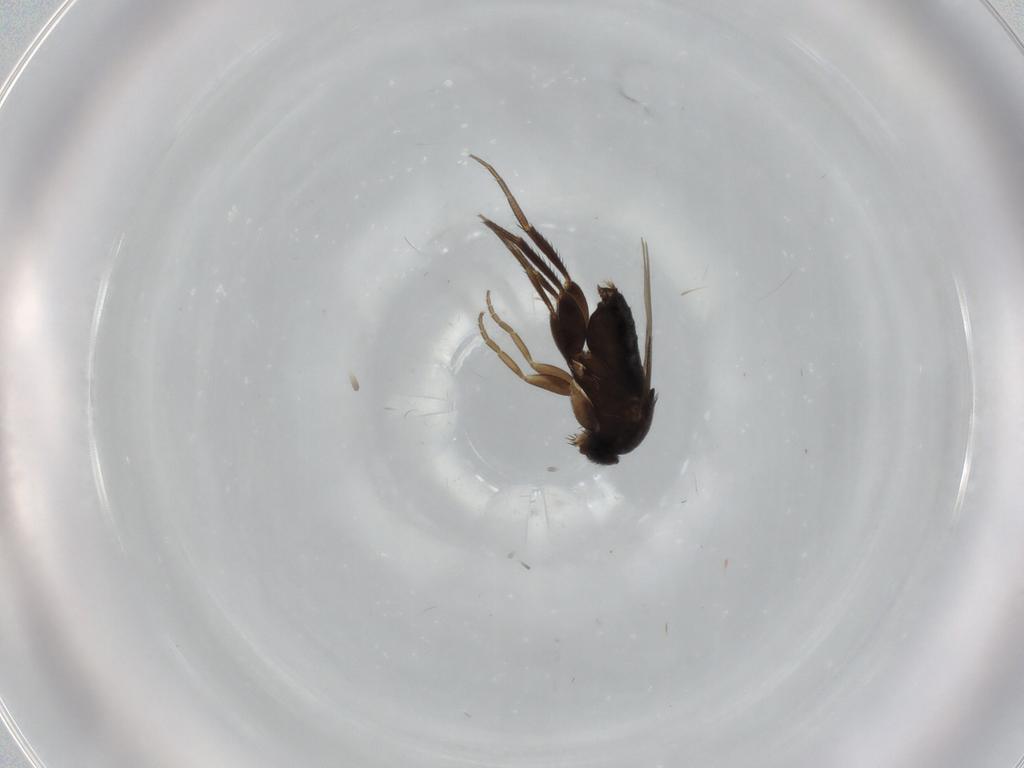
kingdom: Animalia
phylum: Arthropoda
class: Insecta
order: Diptera
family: Phoridae
